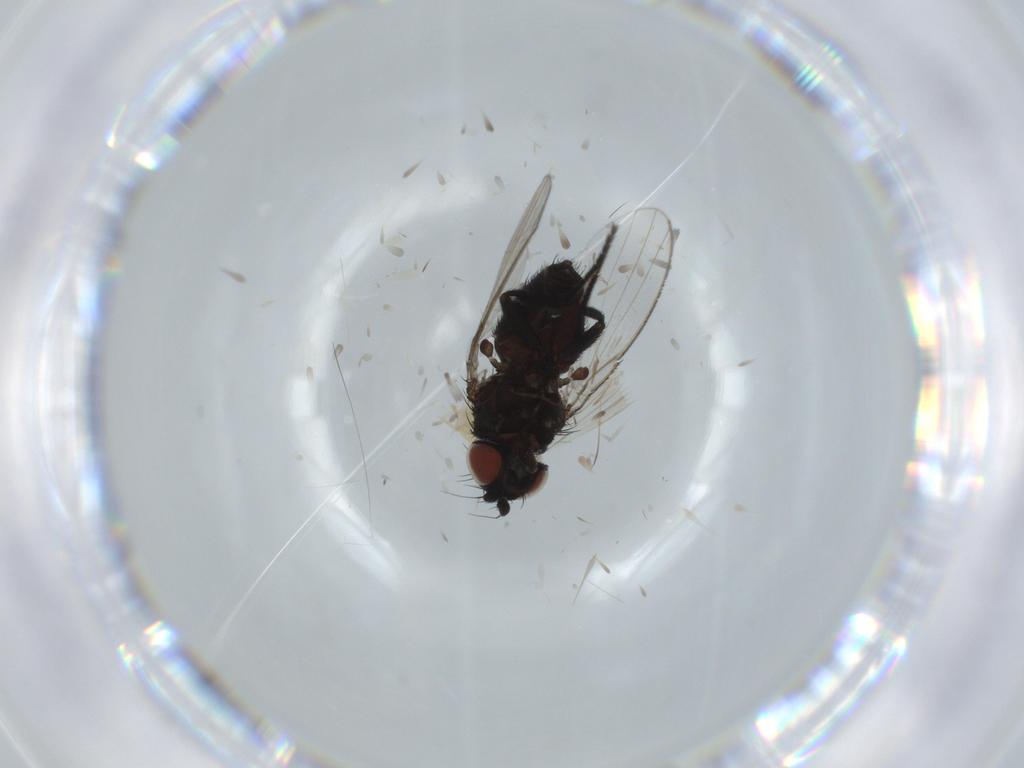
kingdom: Animalia
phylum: Arthropoda
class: Insecta
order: Diptera
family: Milichiidae
